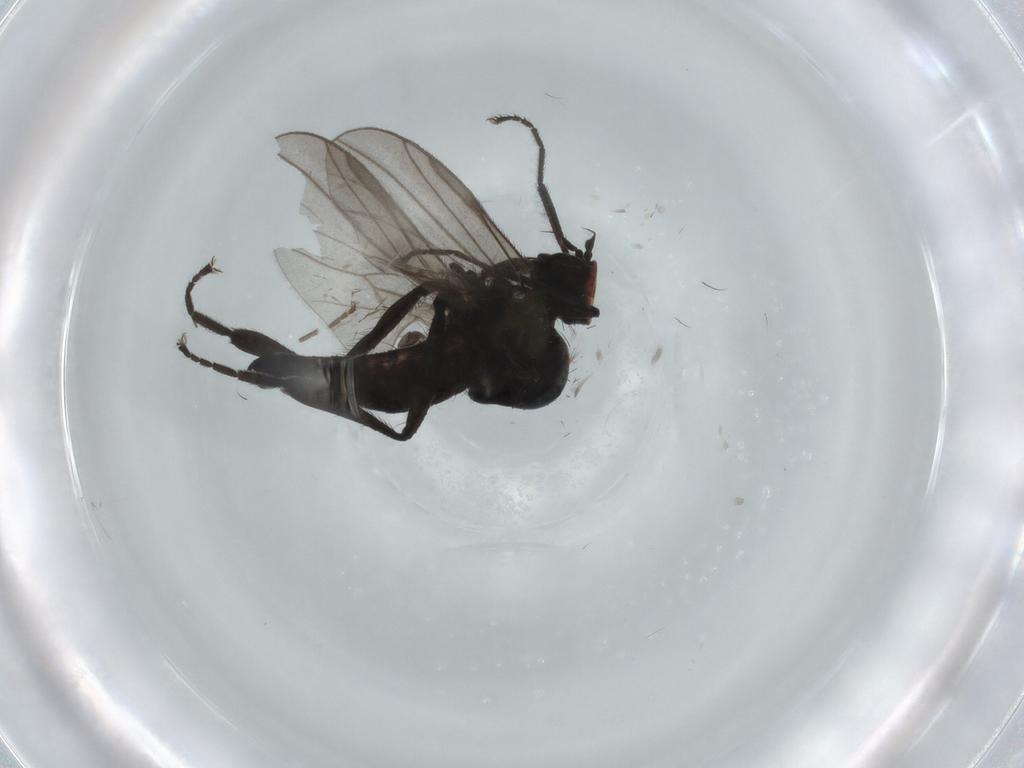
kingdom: Animalia
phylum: Arthropoda
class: Insecta
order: Diptera
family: Hybotidae
